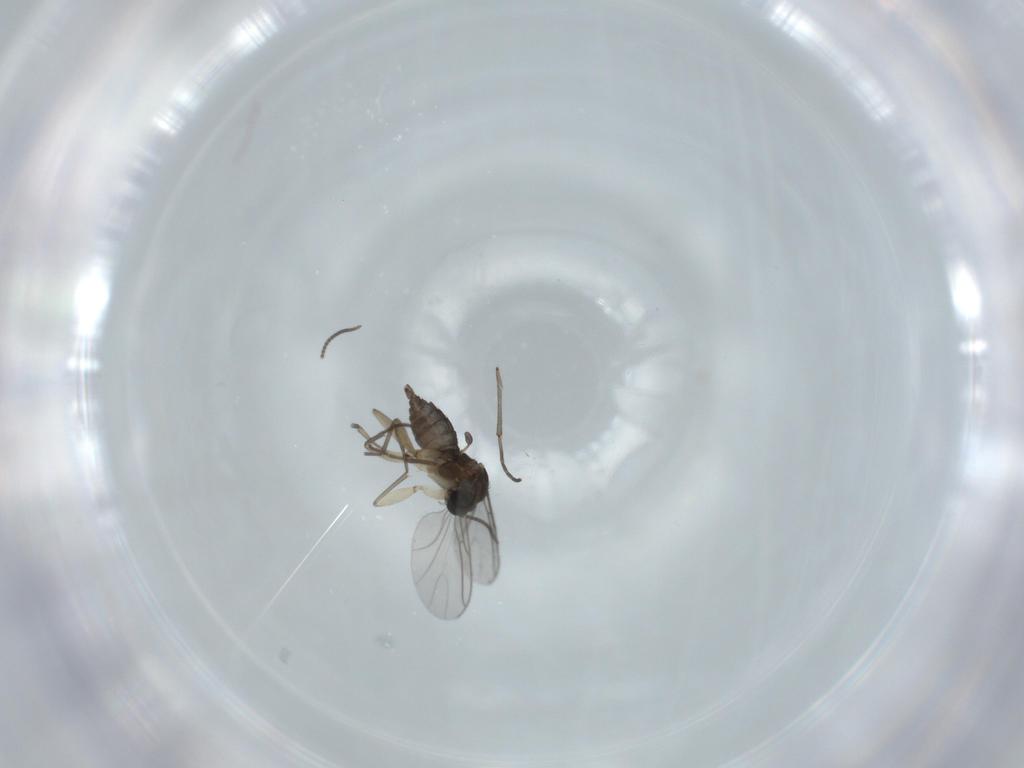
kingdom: Animalia
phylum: Arthropoda
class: Insecta
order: Diptera
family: Sciaridae
